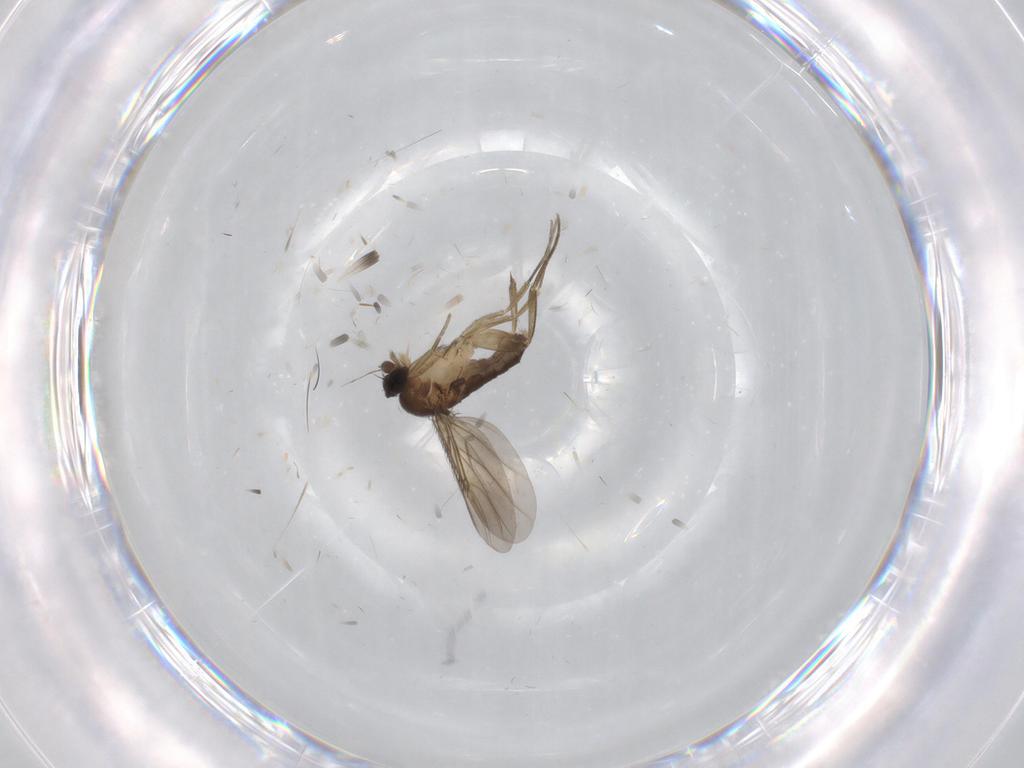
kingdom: Animalia
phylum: Arthropoda
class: Insecta
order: Diptera
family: Phoridae
